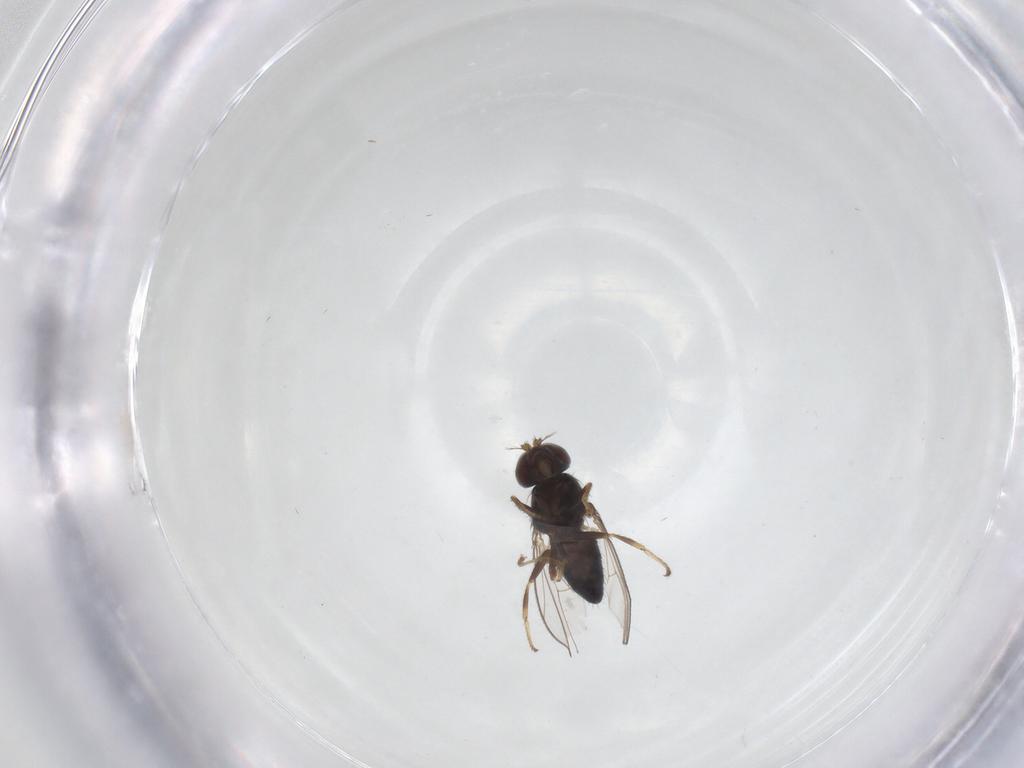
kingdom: Animalia
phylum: Arthropoda
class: Insecta
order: Diptera
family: Ephydridae
